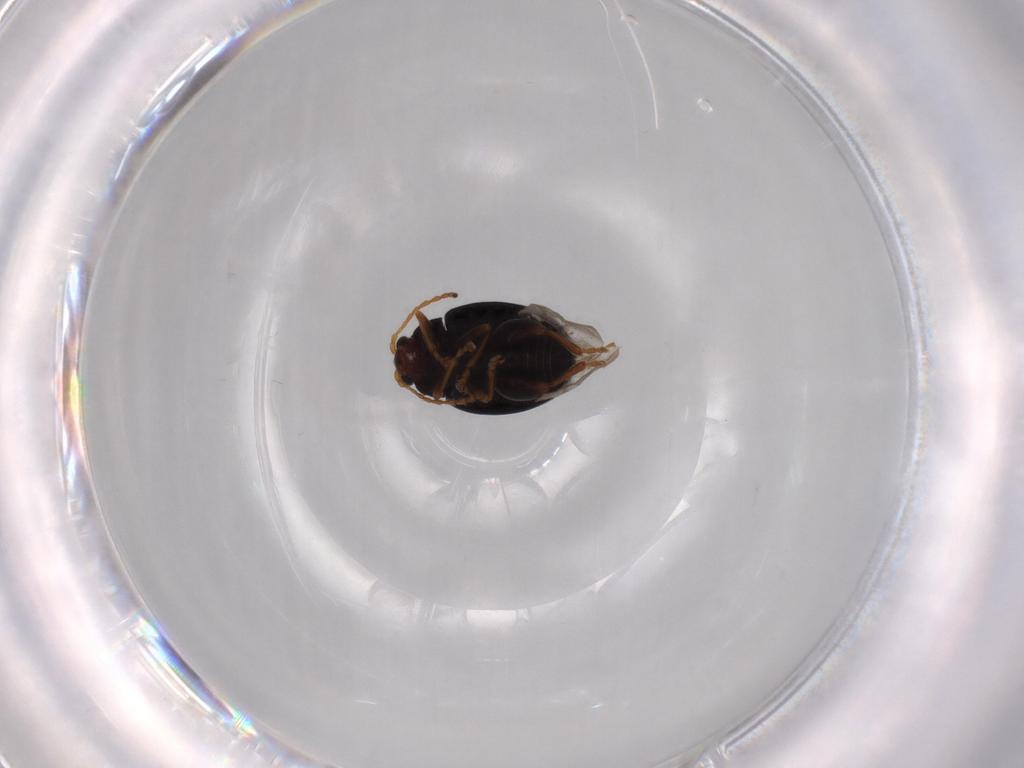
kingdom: Animalia
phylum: Arthropoda
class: Insecta
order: Coleoptera
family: Chrysomelidae
